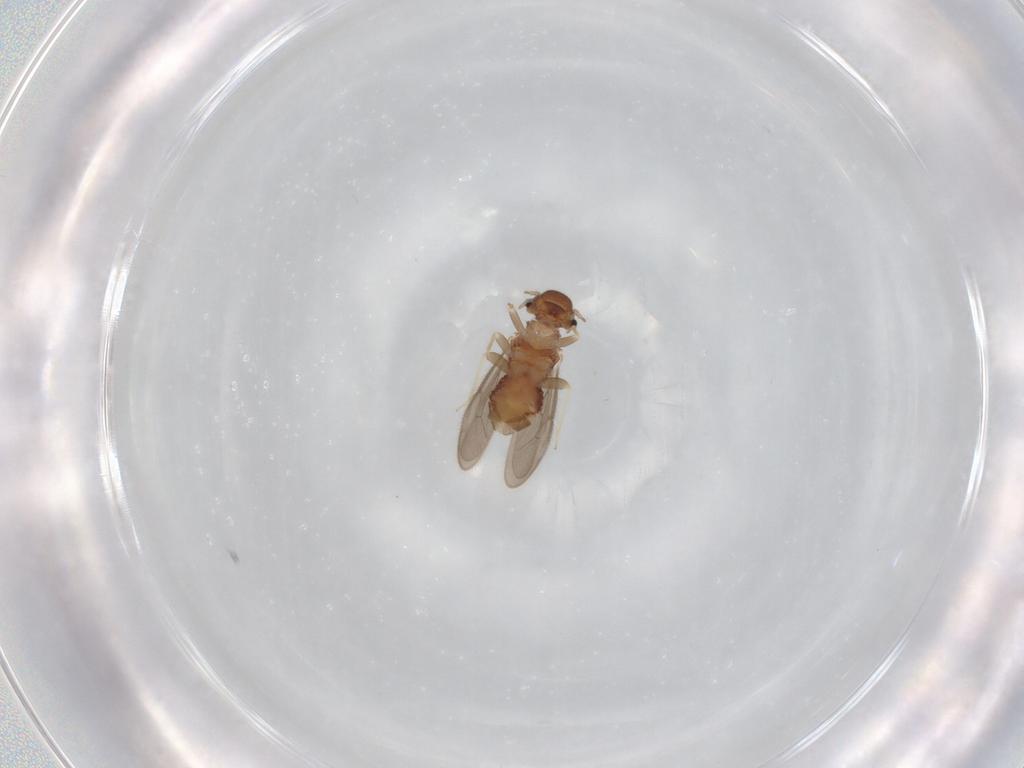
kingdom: Animalia
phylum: Arthropoda
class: Insecta
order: Psocodea
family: Archipsocidae
